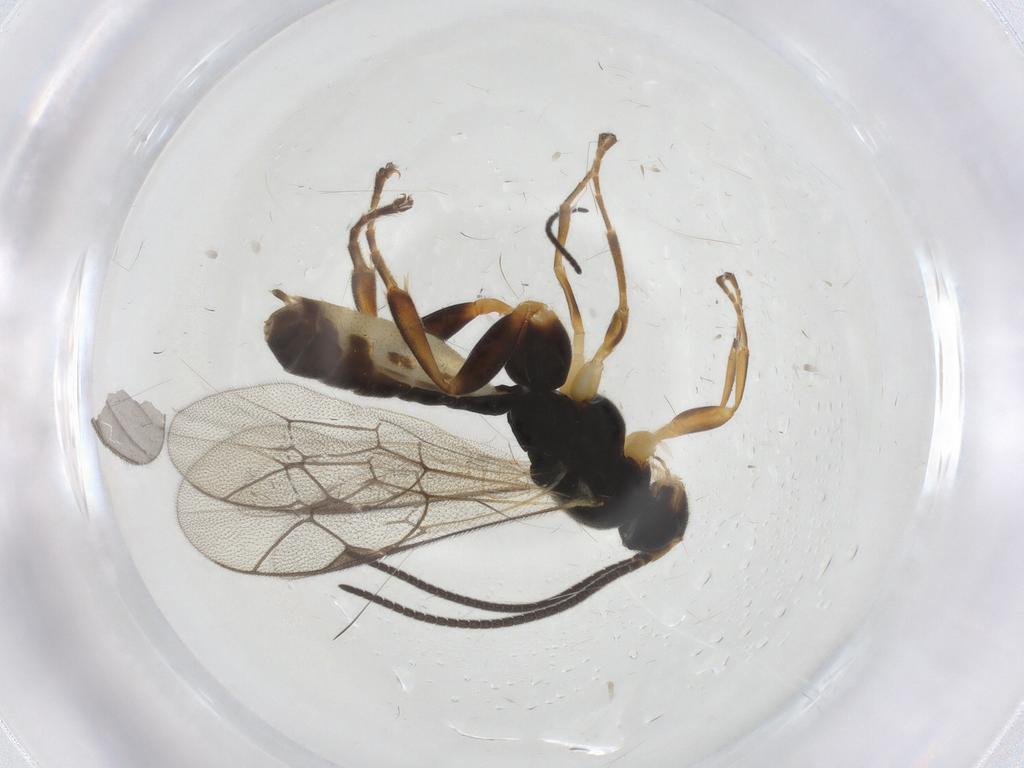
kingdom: Animalia
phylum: Arthropoda
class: Insecta
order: Hymenoptera
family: Ichneumonidae
